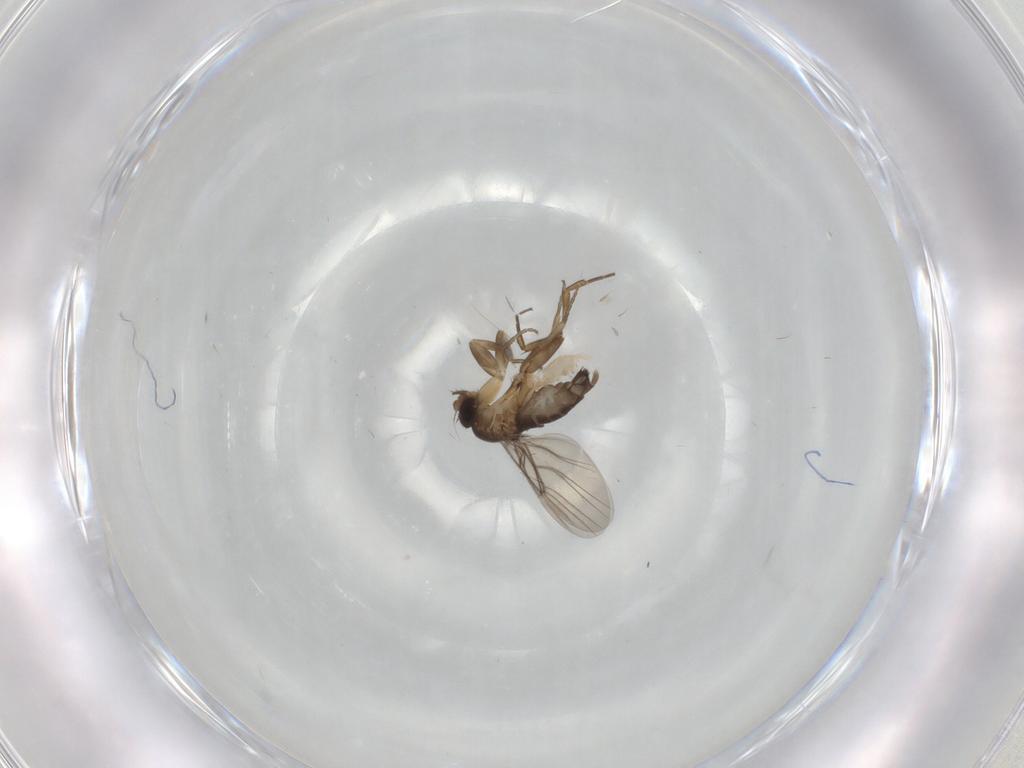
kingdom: Animalia
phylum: Arthropoda
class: Insecta
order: Diptera
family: Phoridae
